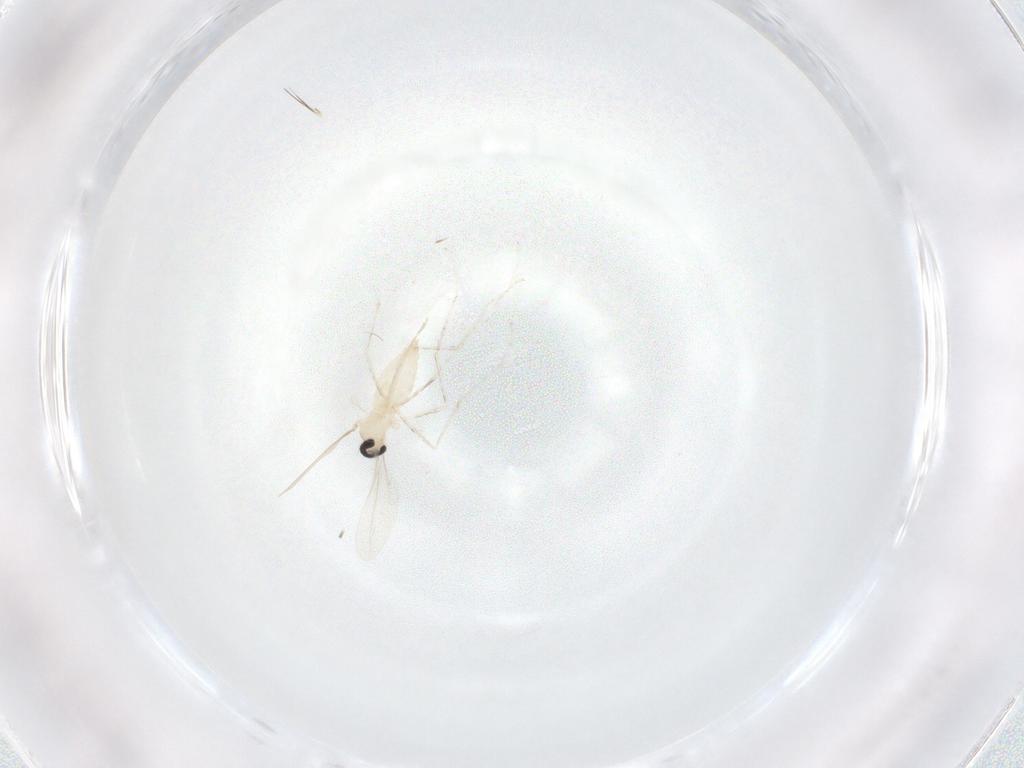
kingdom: Animalia
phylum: Arthropoda
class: Insecta
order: Diptera
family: Cecidomyiidae
